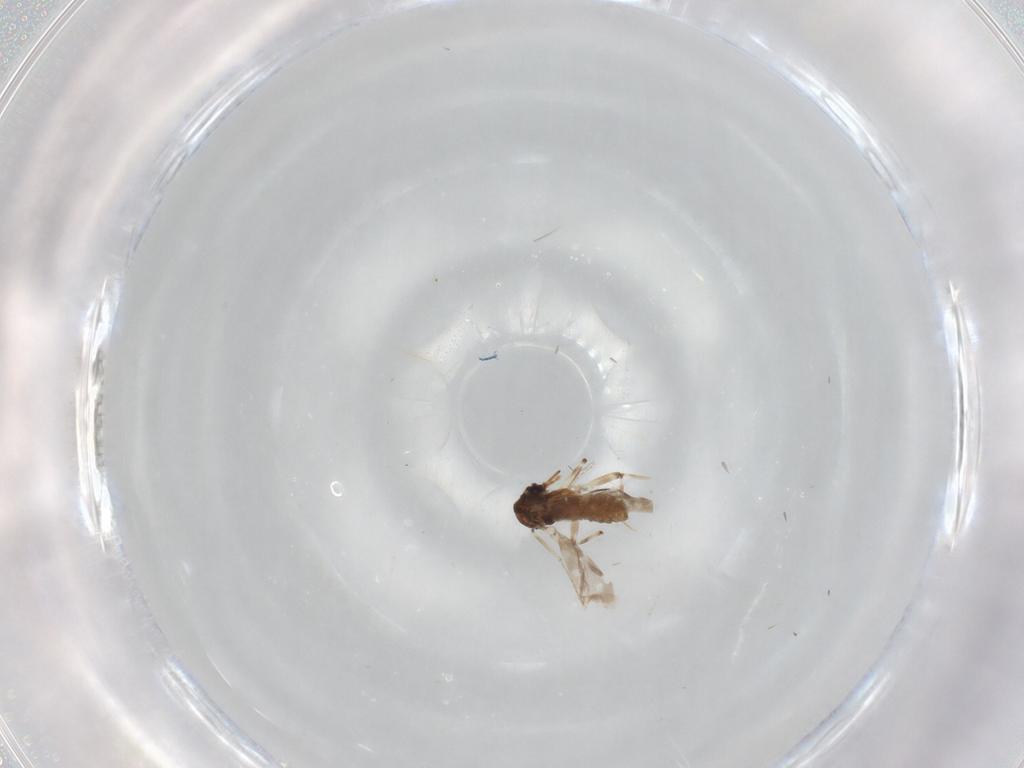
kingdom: Animalia
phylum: Arthropoda
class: Insecta
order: Diptera
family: Ceratopogonidae
